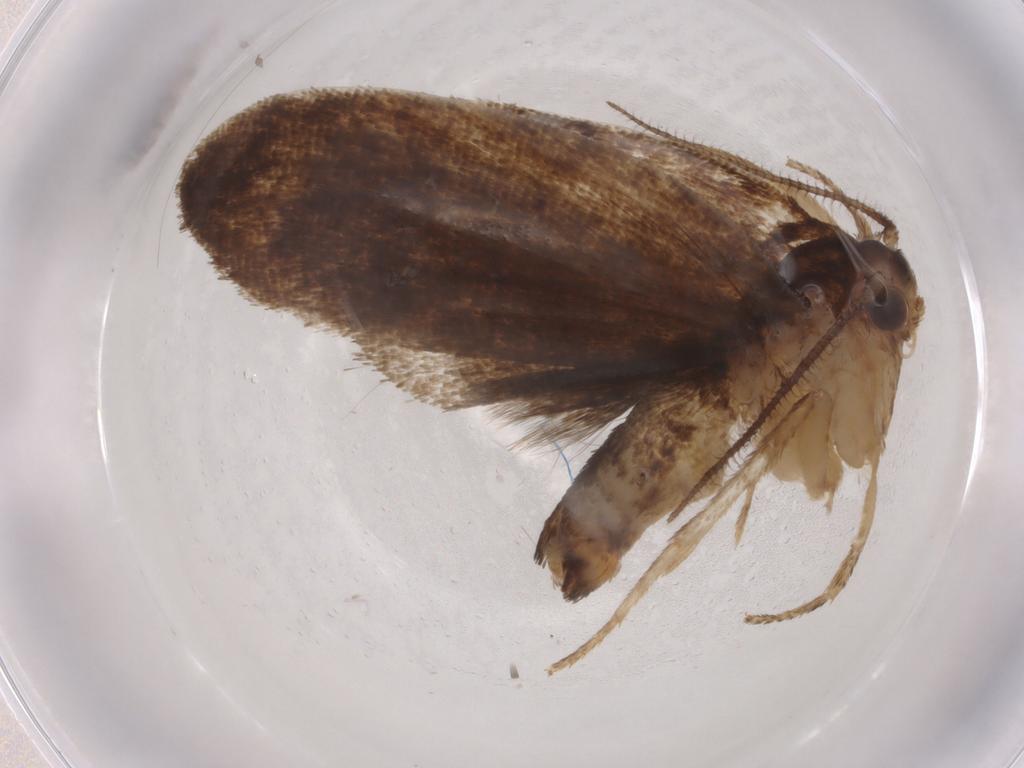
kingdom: Animalia
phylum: Arthropoda
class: Insecta
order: Lepidoptera
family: Tortricidae
